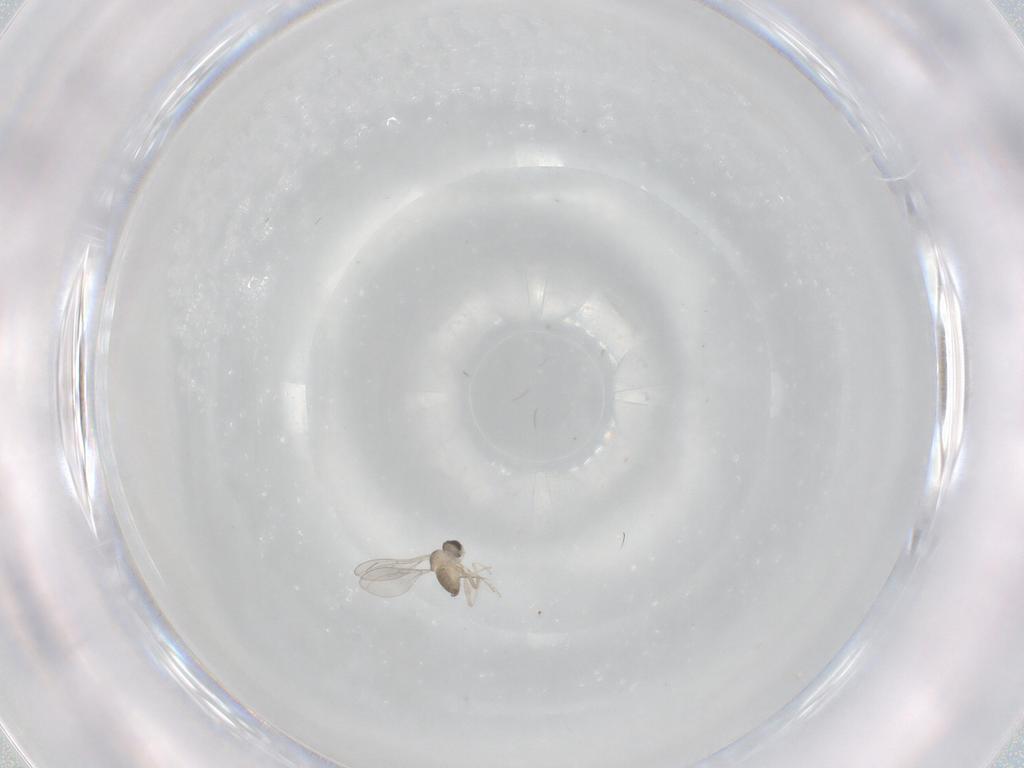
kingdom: Animalia
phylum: Arthropoda
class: Insecta
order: Diptera
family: Cecidomyiidae
